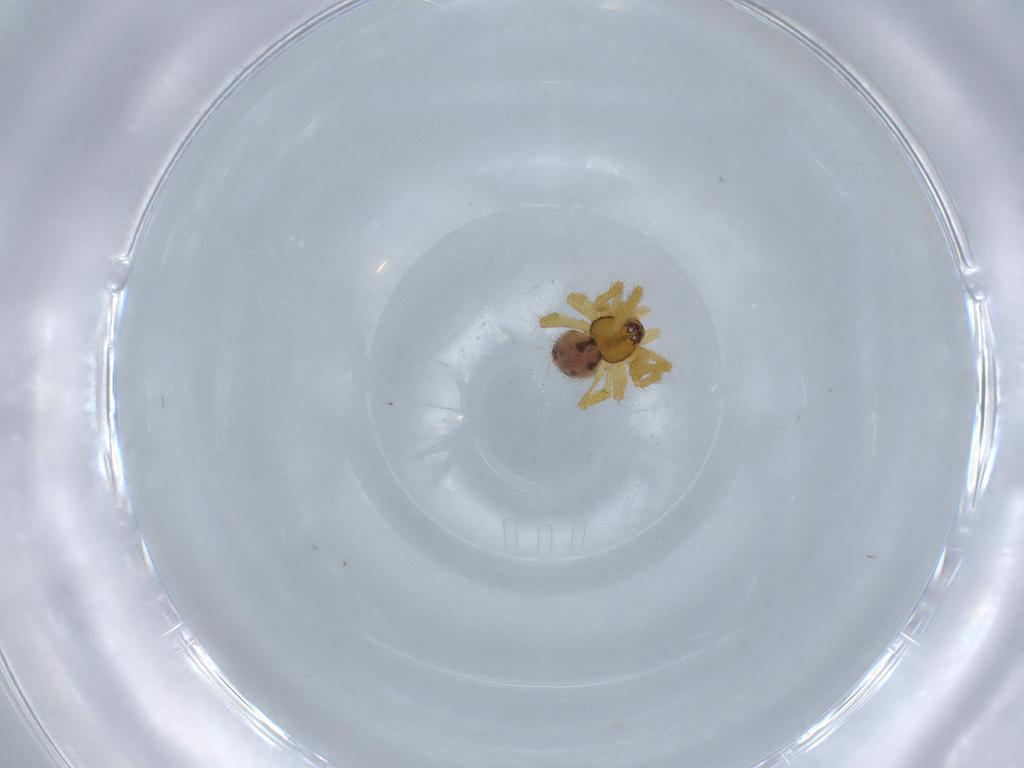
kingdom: Animalia
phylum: Arthropoda
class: Arachnida
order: Araneae
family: Theridiidae
